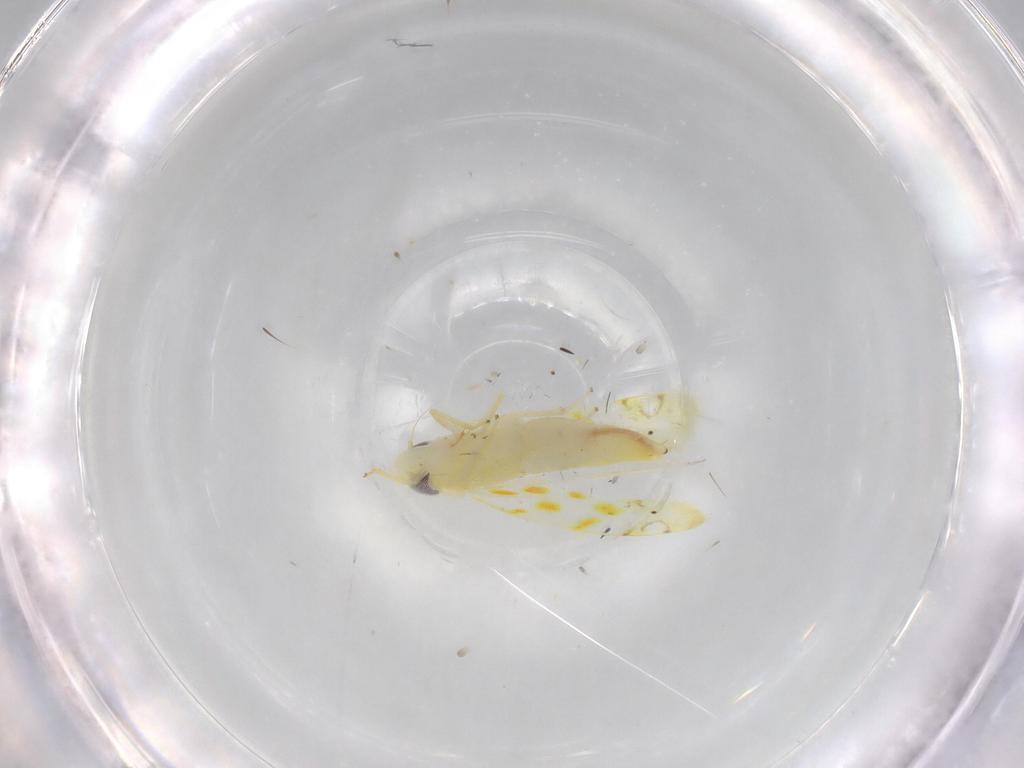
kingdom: Animalia
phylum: Arthropoda
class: Insecta
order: Hemiptera
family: Cicadellidae
